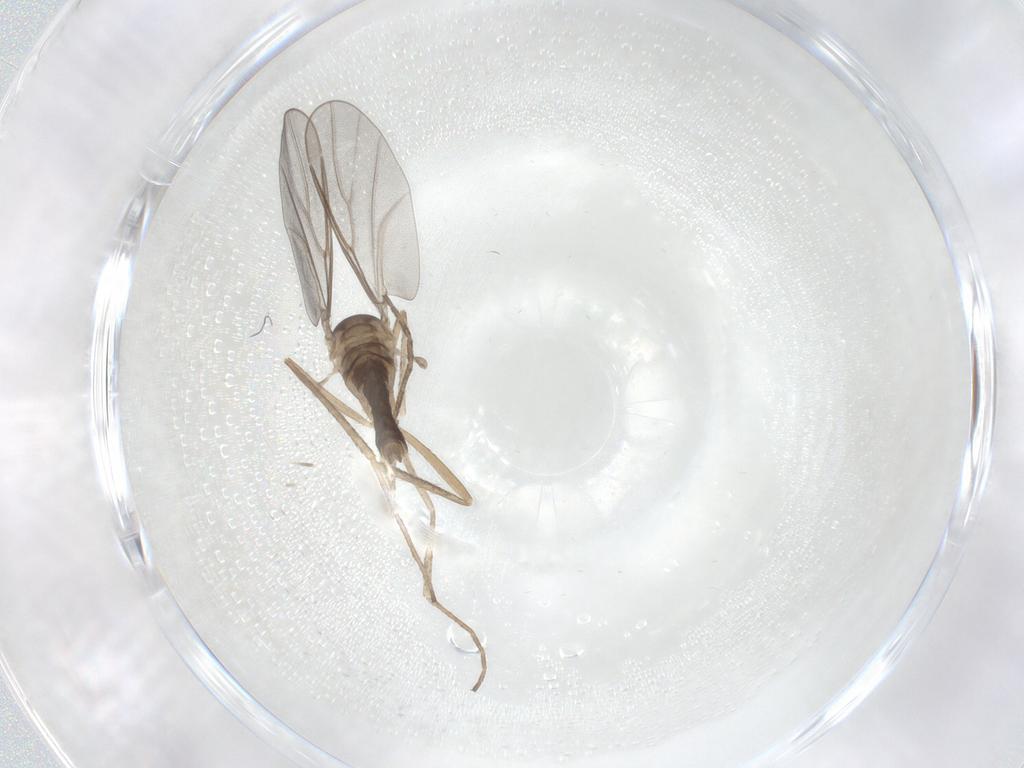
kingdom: Animalia
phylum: Arthropoda
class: Insecta
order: Diptera
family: Cecidomyiidae
